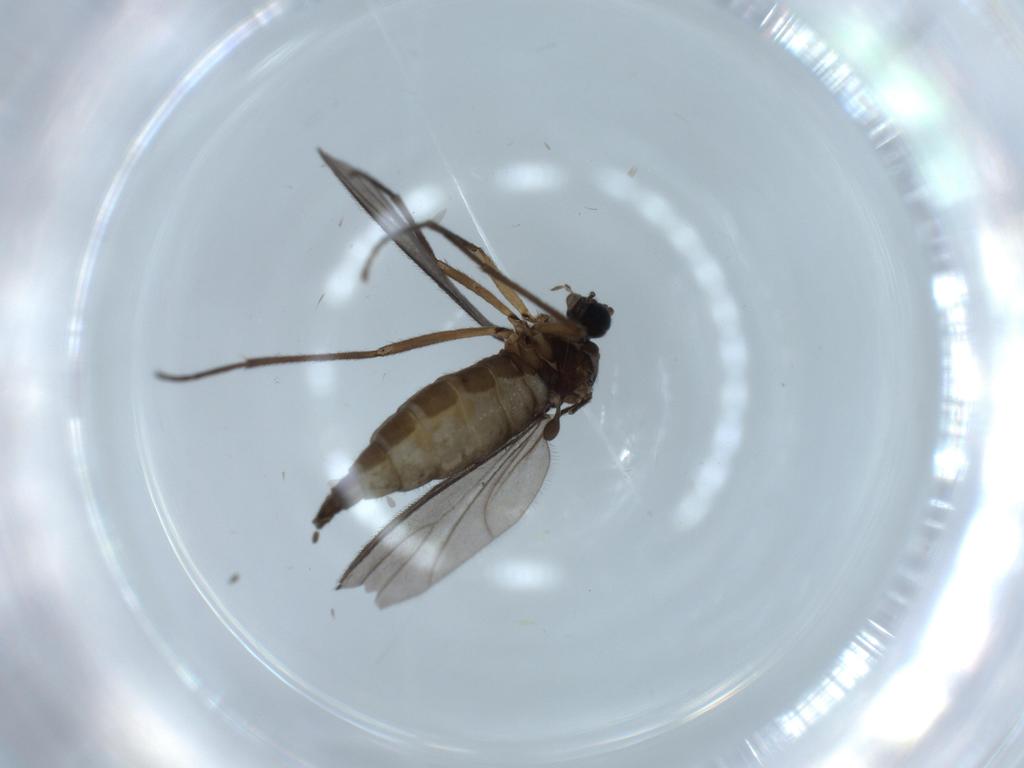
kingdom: Animalia
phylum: Arthropoda
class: Insecta
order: Diptera
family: Sciaridae
